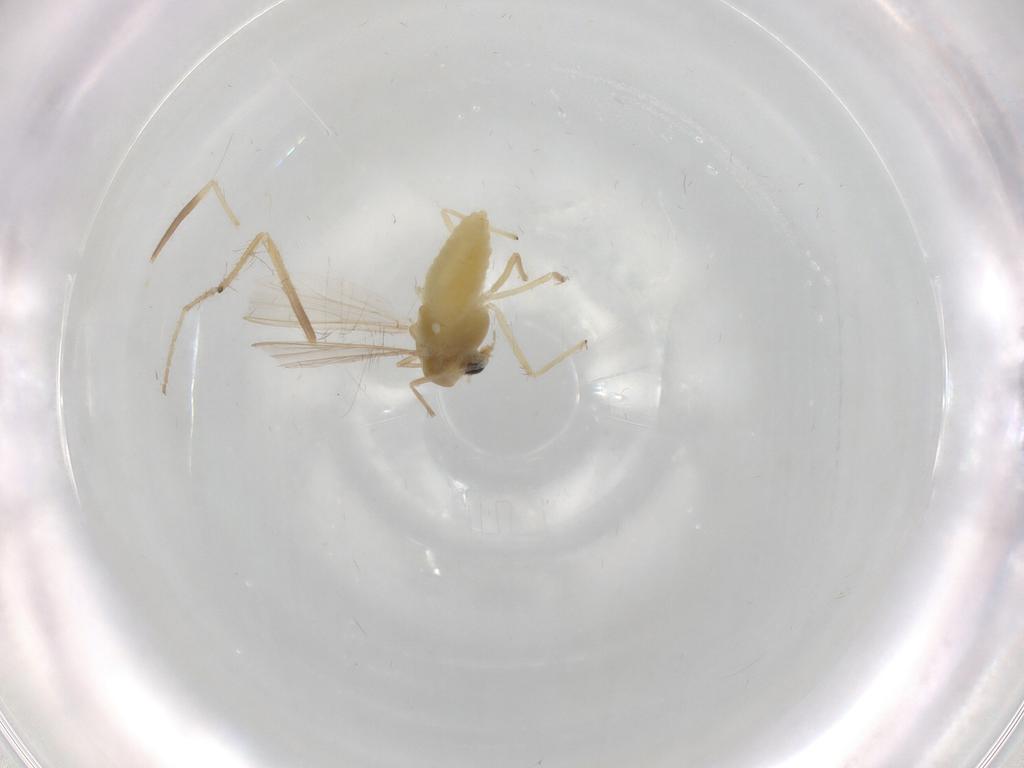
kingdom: Animalia
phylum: Arthropoda
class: Insecta
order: Diptera
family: Chironomidae
